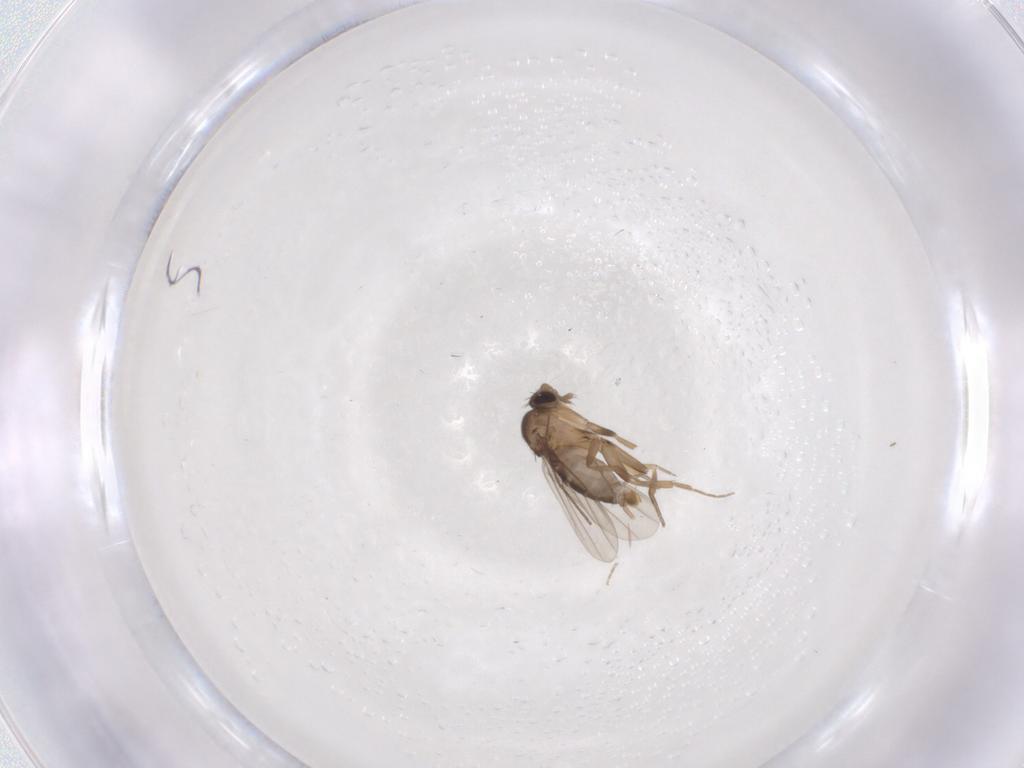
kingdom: Animalia
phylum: Arthropoda
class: Insecta
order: Diptera
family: Chironomidae
